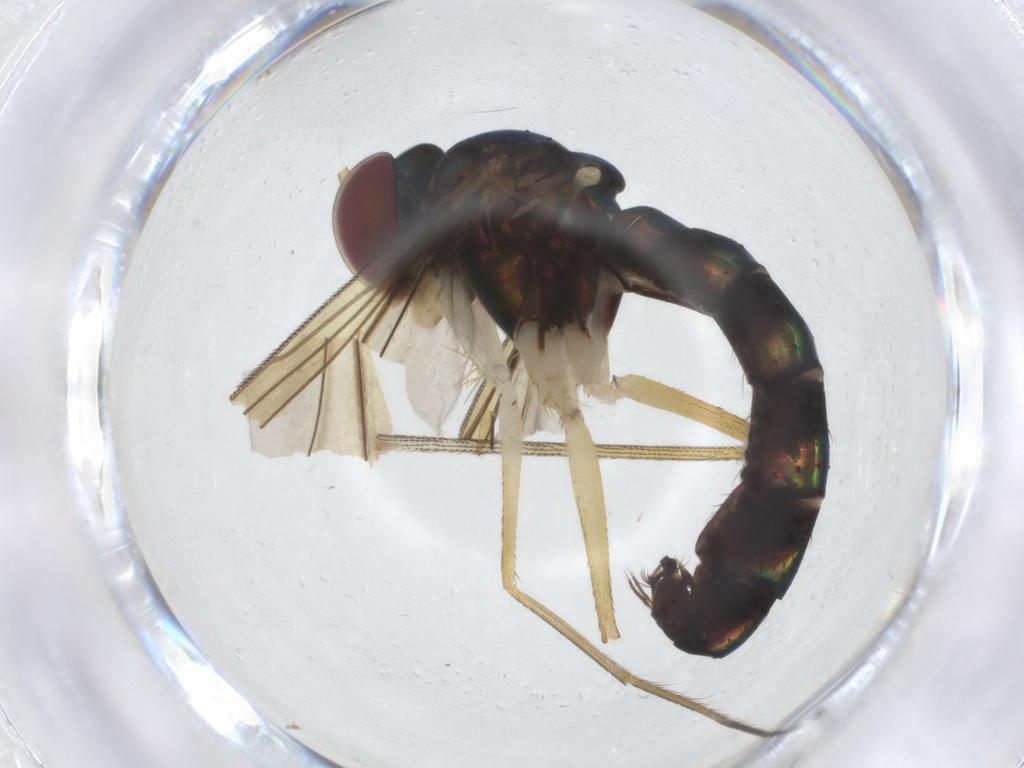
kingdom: Animalia
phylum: Arthropoda
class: Insecta
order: Diptera
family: Dolichopodidae
